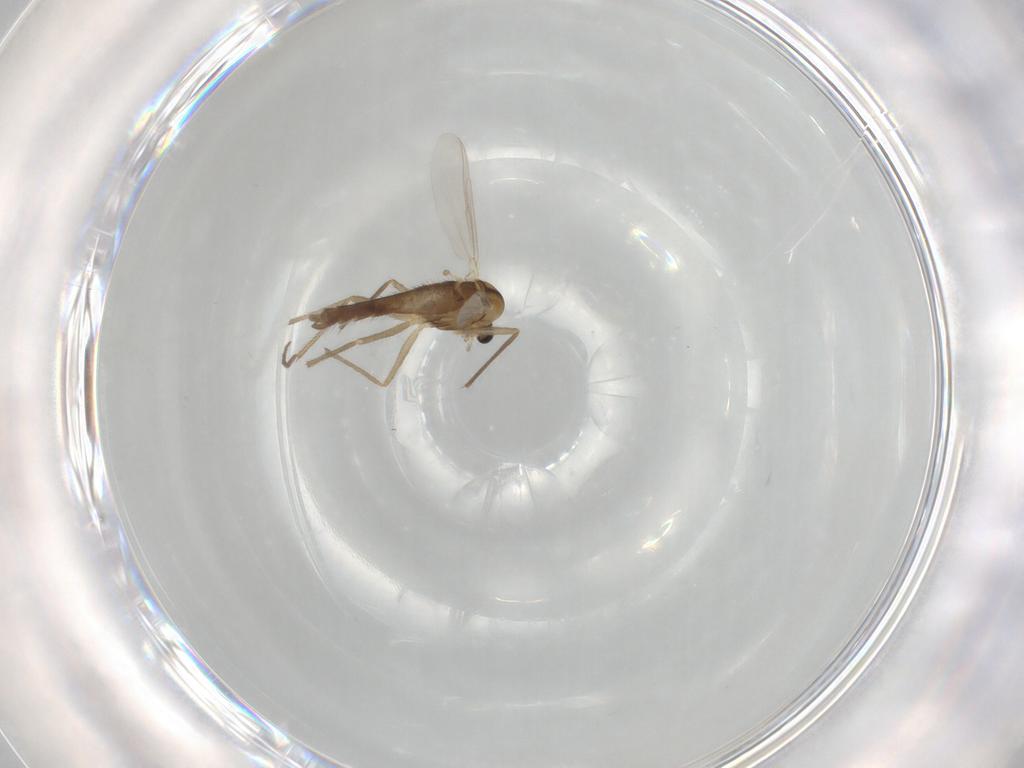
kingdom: Animalia
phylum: Arthropoda
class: Insecta
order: Diptera
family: Chironomidae
